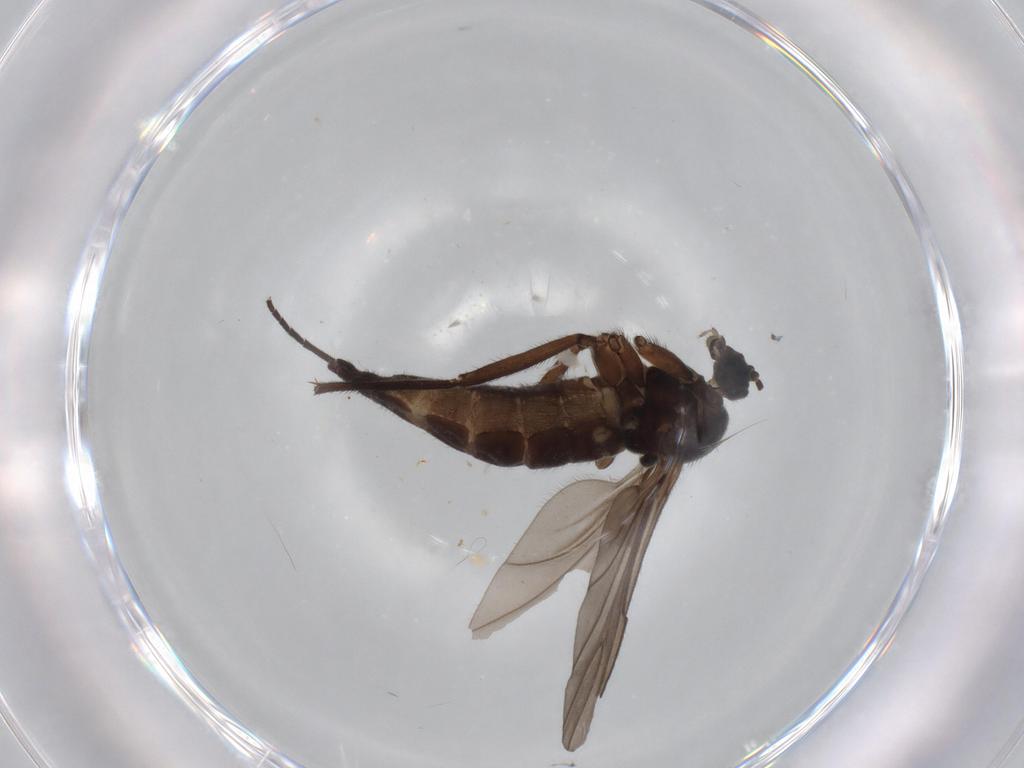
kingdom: Animalia
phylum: Arthropoda
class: Insecta
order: Diptera
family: Sciaridae
